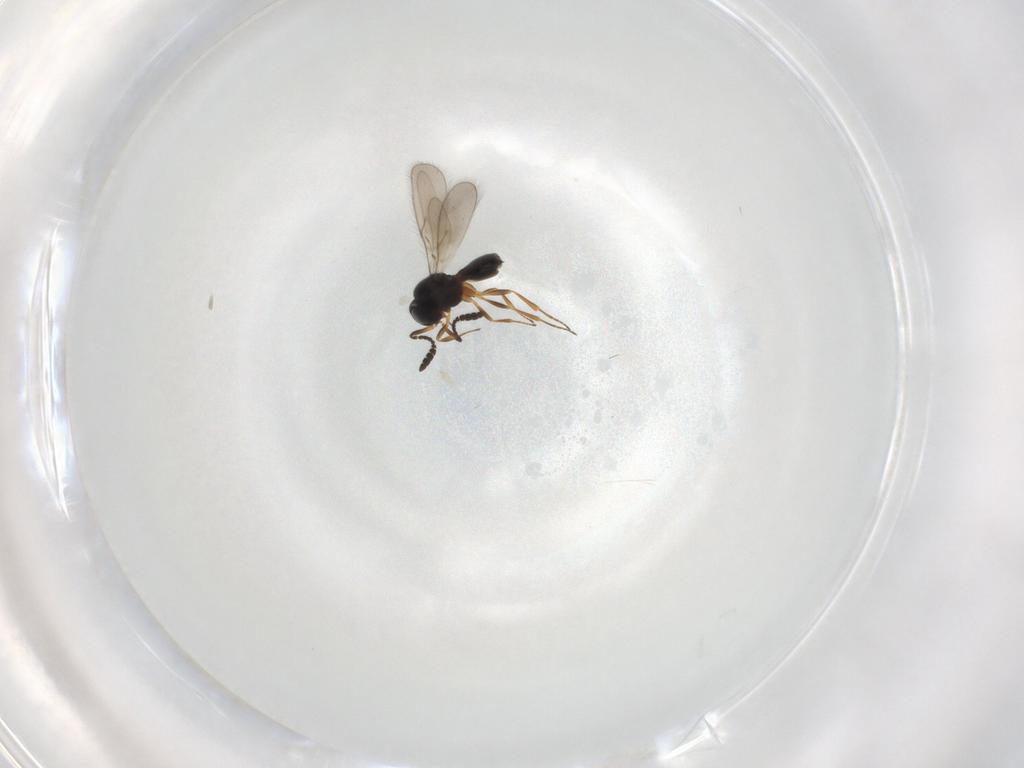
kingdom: Animalia
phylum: Arthropoda
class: Insecta
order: Hymenoptera
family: Scelionidae
